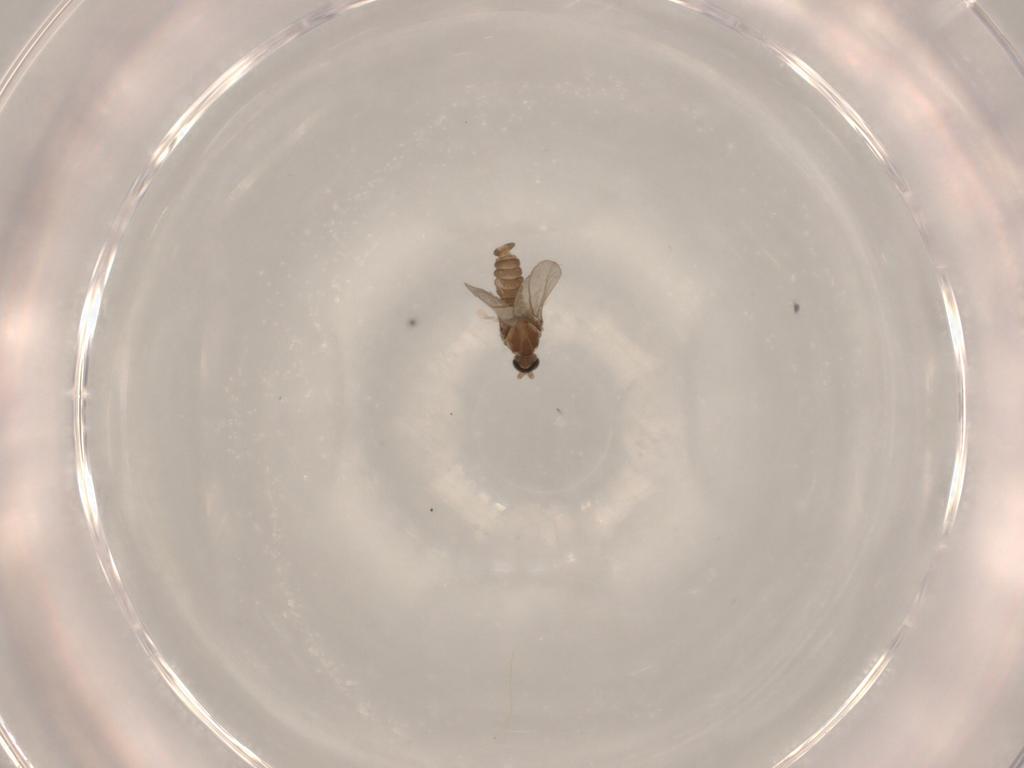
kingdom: Animalia
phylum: Arthropoda
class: Insecta
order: Diptera
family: Cecidomyiidae
